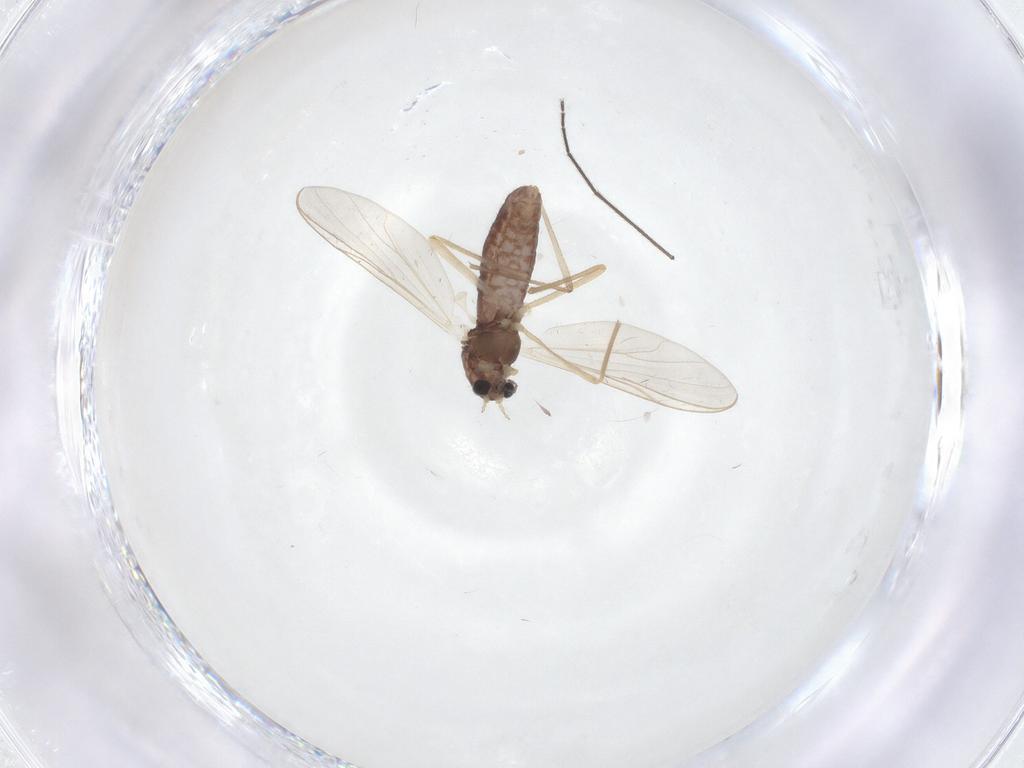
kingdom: Animalia
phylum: Arthropoda
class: Insecta
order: Diptera
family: Chironomidae
